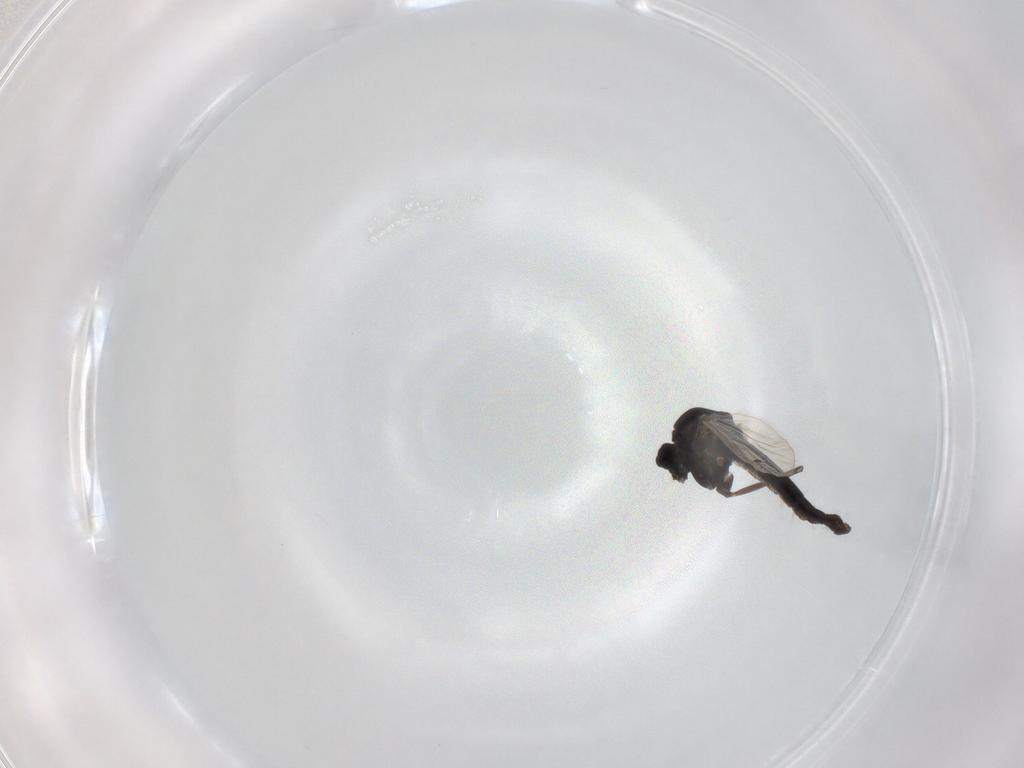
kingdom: Animalia
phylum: Arthropoda
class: Insecta
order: Diptera
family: Chironomidae
